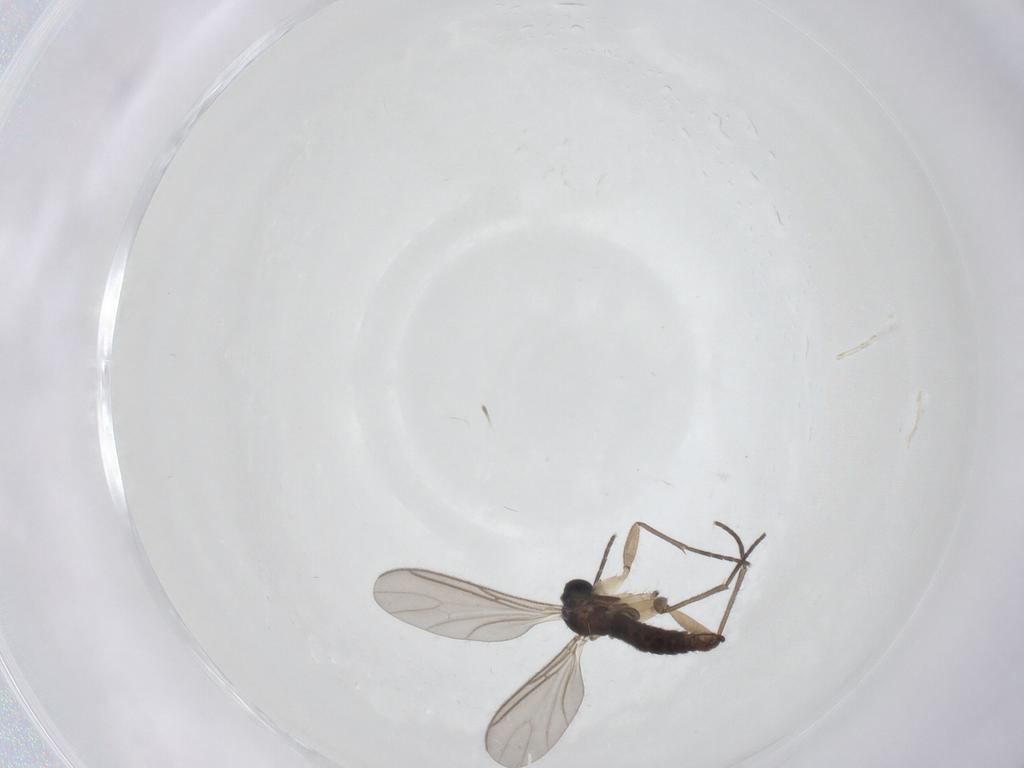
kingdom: Animalia
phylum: Arthropoda
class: Insecta
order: Diptera
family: Sciaridae
